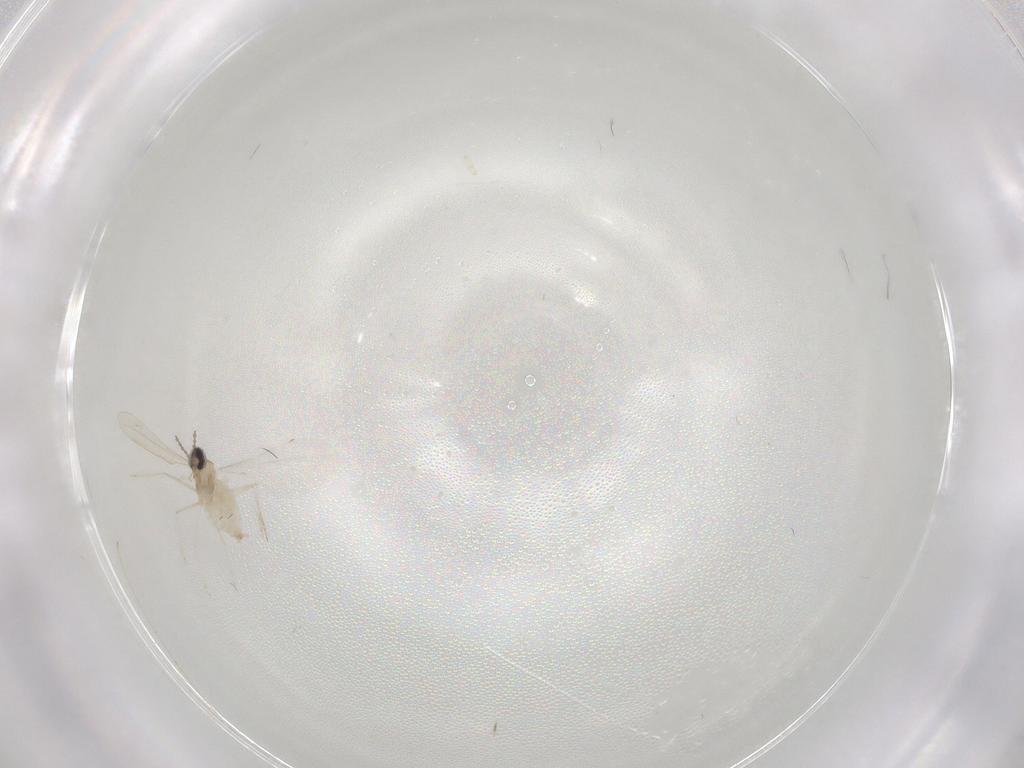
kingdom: Animalia
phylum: Arthropoda
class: Insecta
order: Diptera
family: Cecidomyiidae
